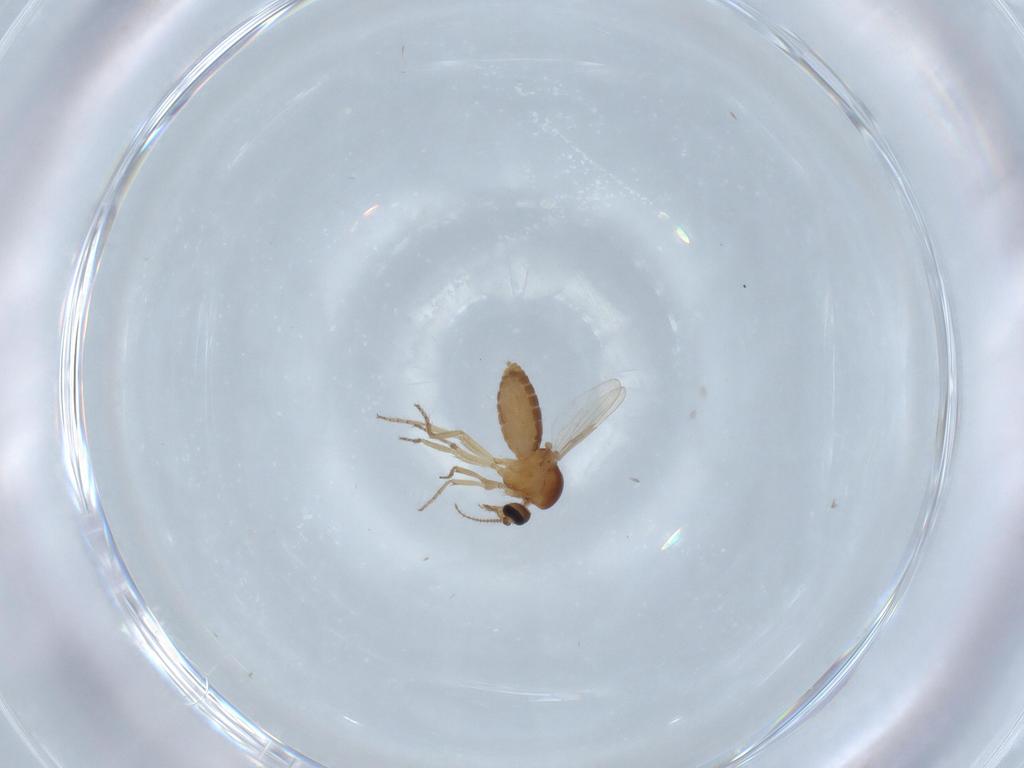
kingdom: Animalia
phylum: Arthropoda
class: Insecta
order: Diptera
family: Ceratopogonidae
